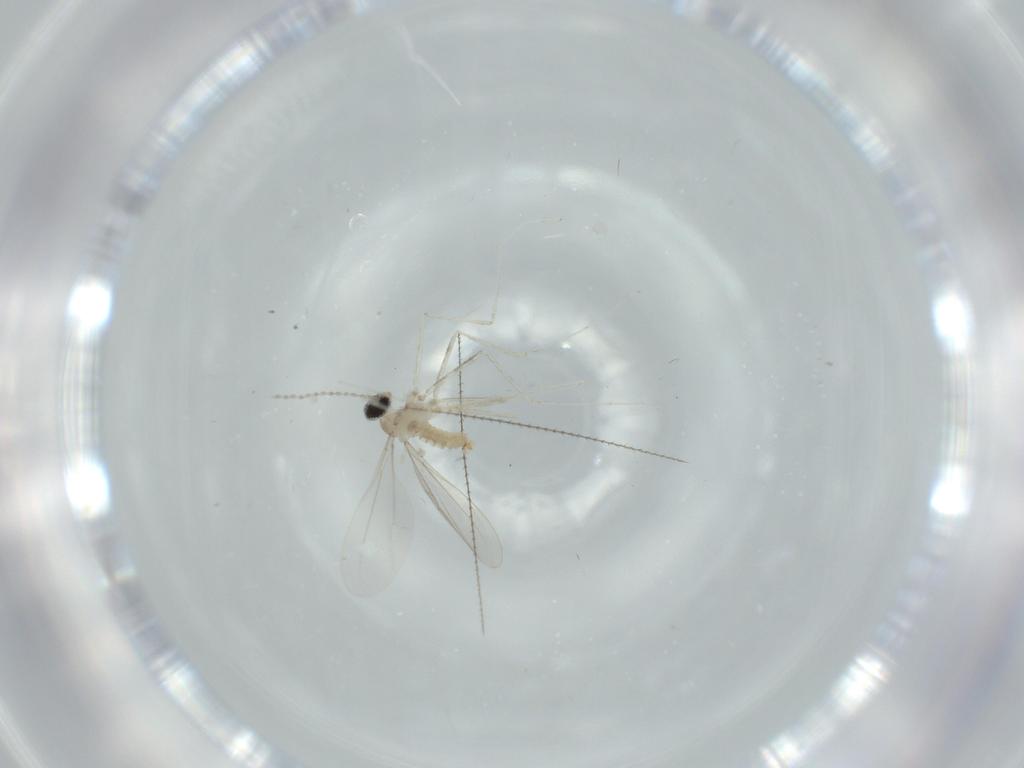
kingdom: Animalia
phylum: Arthropoda
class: Insecta
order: Diptera
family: Cecidomyiidae
